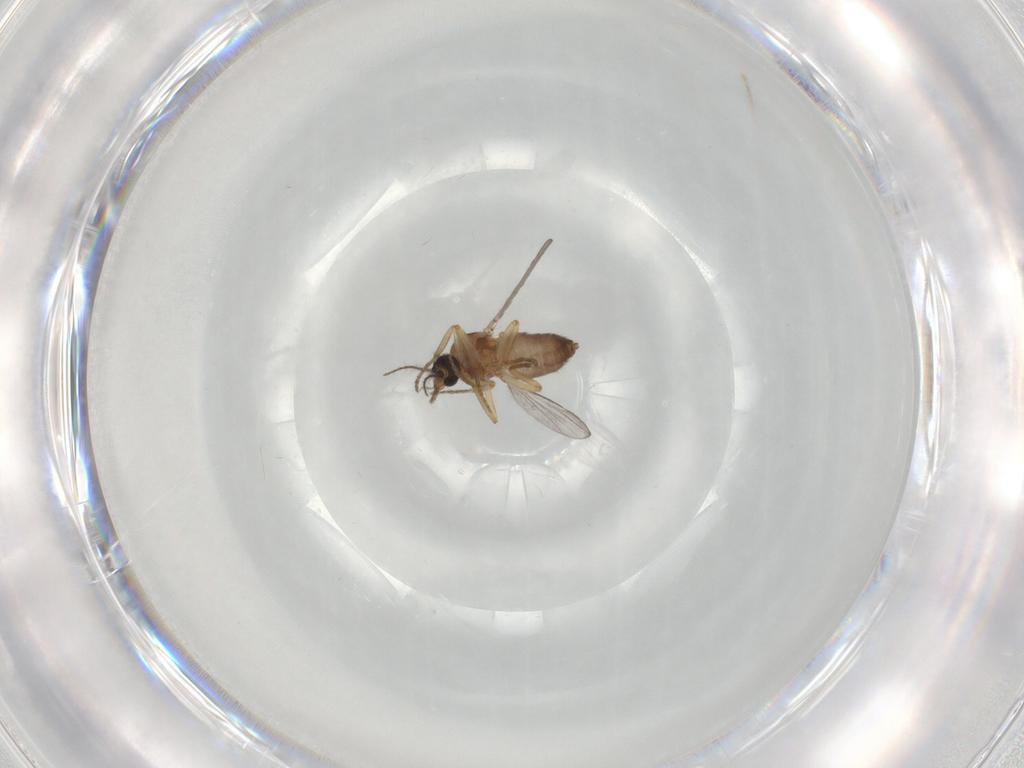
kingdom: Animalia
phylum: Arthropoda
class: Insecta
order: Diptera
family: Ceratopogonidae
